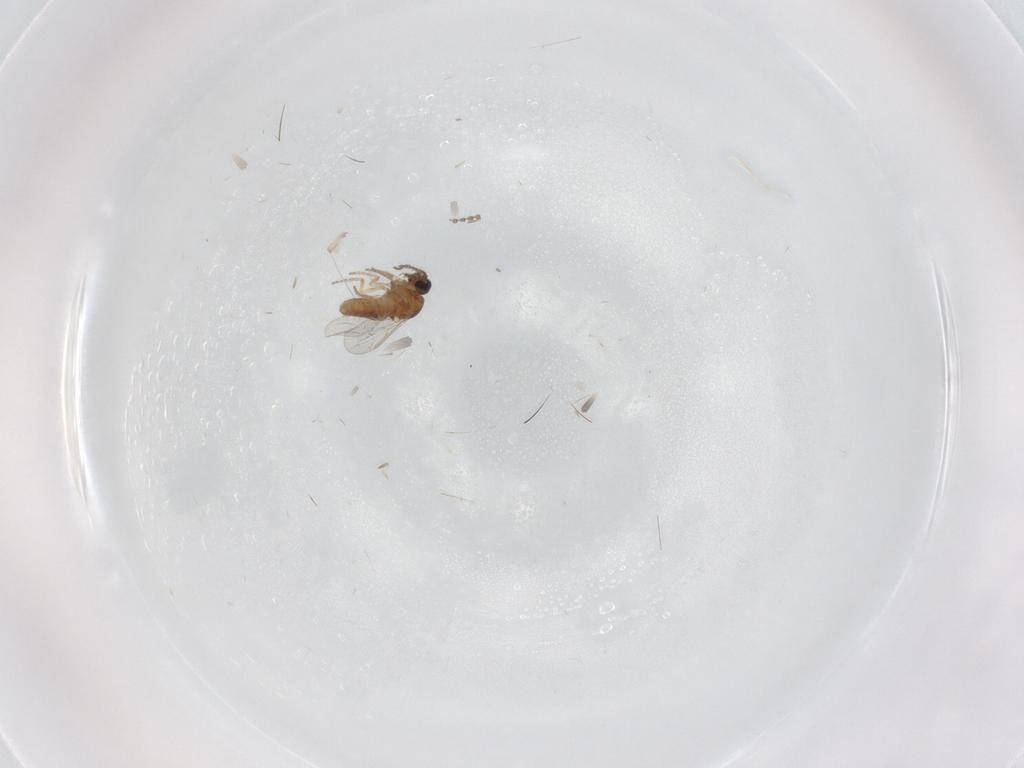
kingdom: Animalia
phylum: Arthropoda
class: Insecta
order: Diptera
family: Ceratopogonidae
